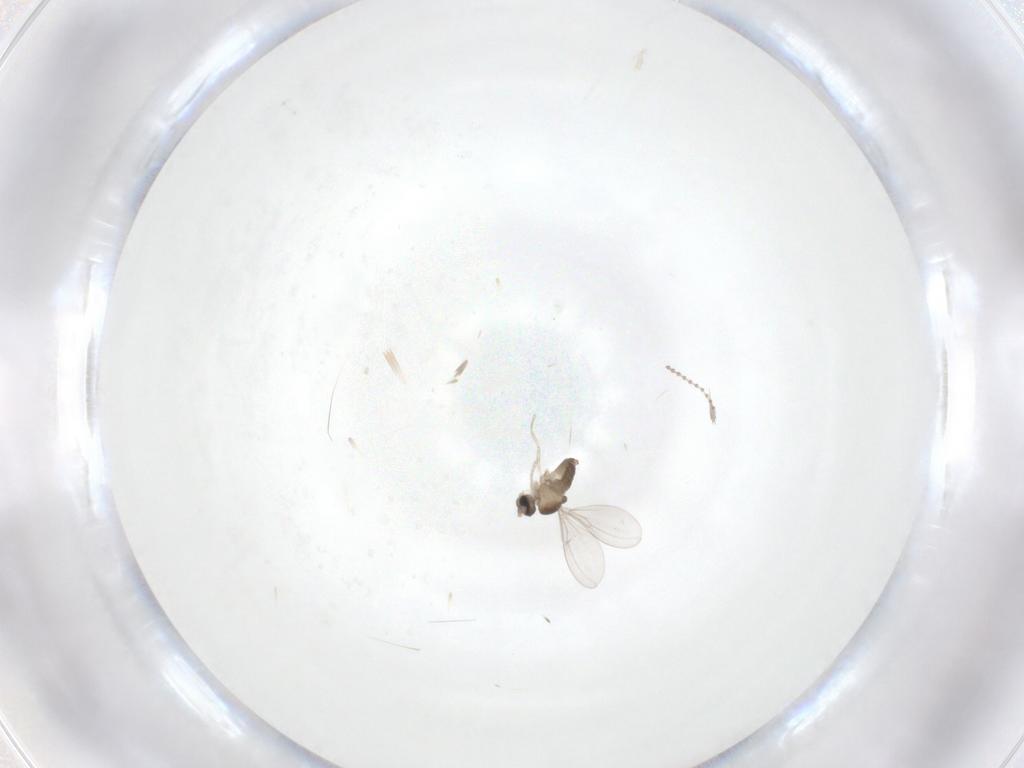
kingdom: Animalia
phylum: Arthropoda
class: Insecta
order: Diptera
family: Cecidomyiidae
